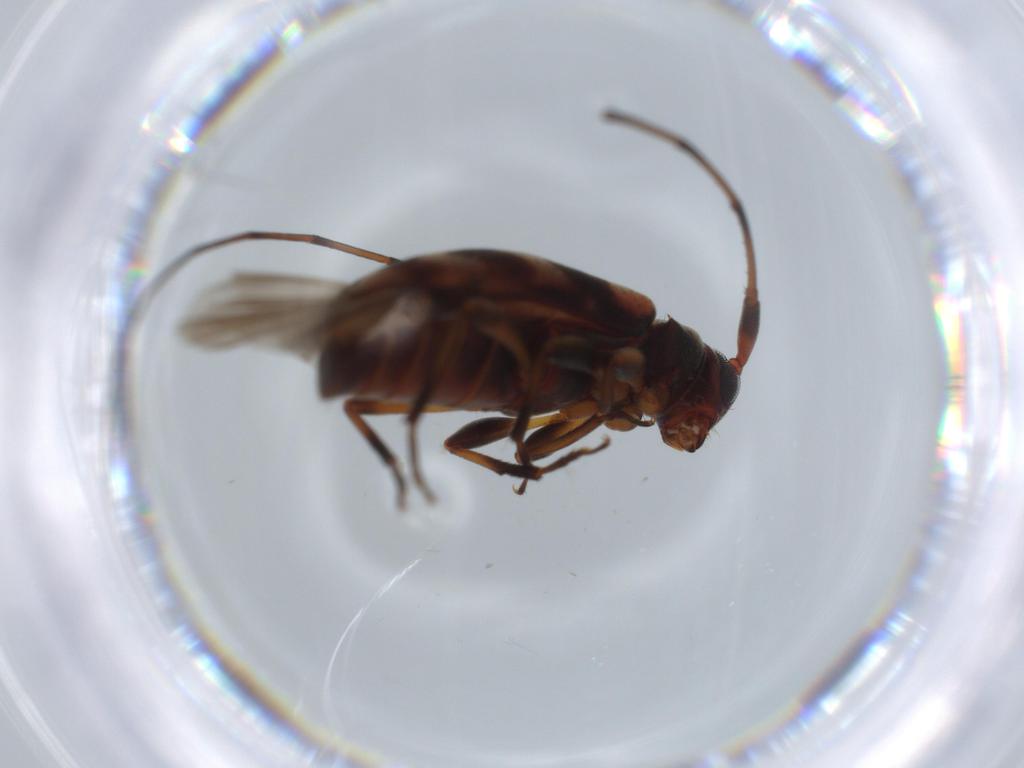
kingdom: Animalia
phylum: Arthropoda
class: Insecta
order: Coleoptera
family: Staphylinidae
